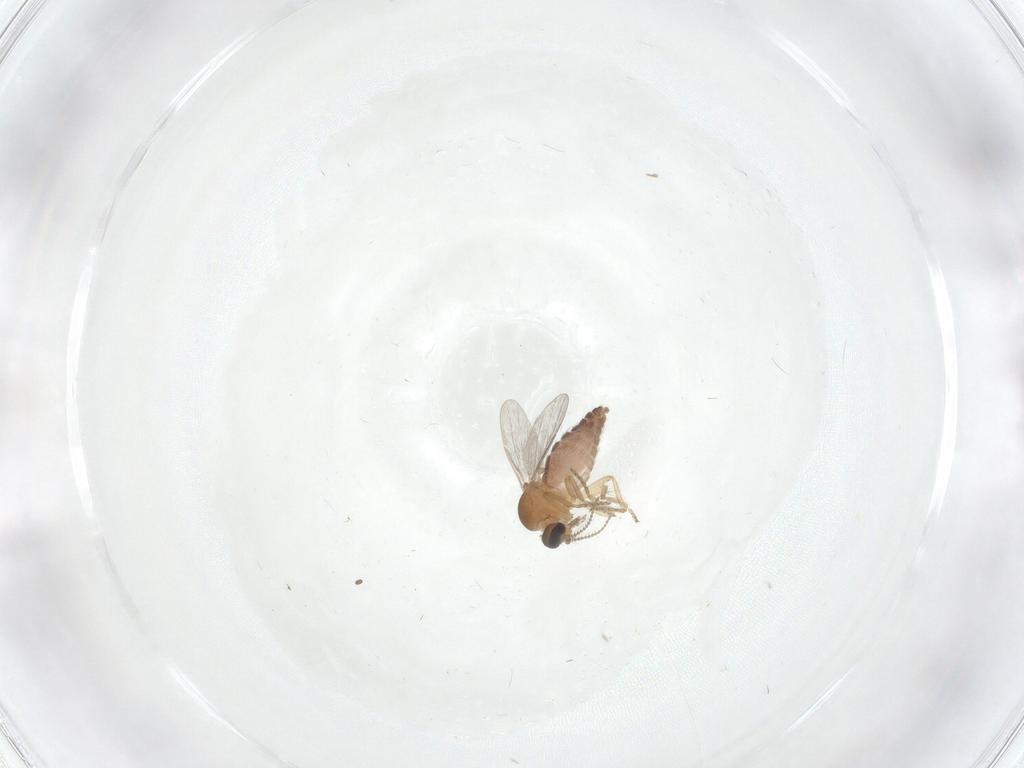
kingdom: Animalia
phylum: Arthropoda
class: Insecta
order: Diptera
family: Ceratopogonidae
